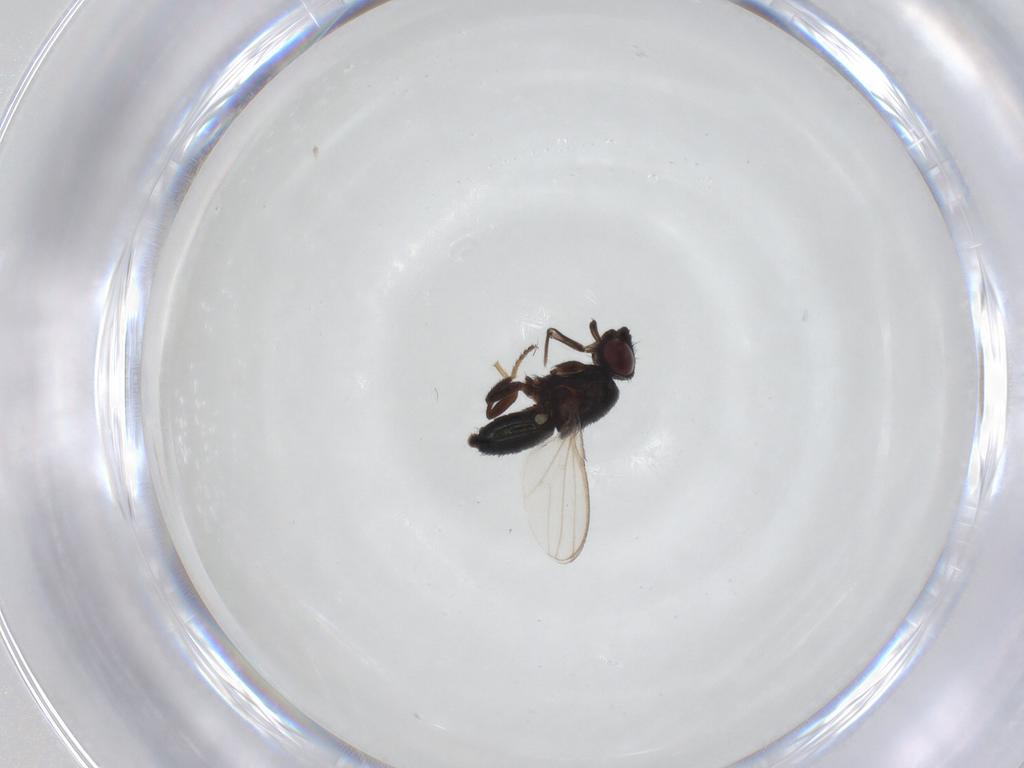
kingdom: Animalia
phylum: Arthropoda
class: Insecta
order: Diptera
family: Milichiidae
